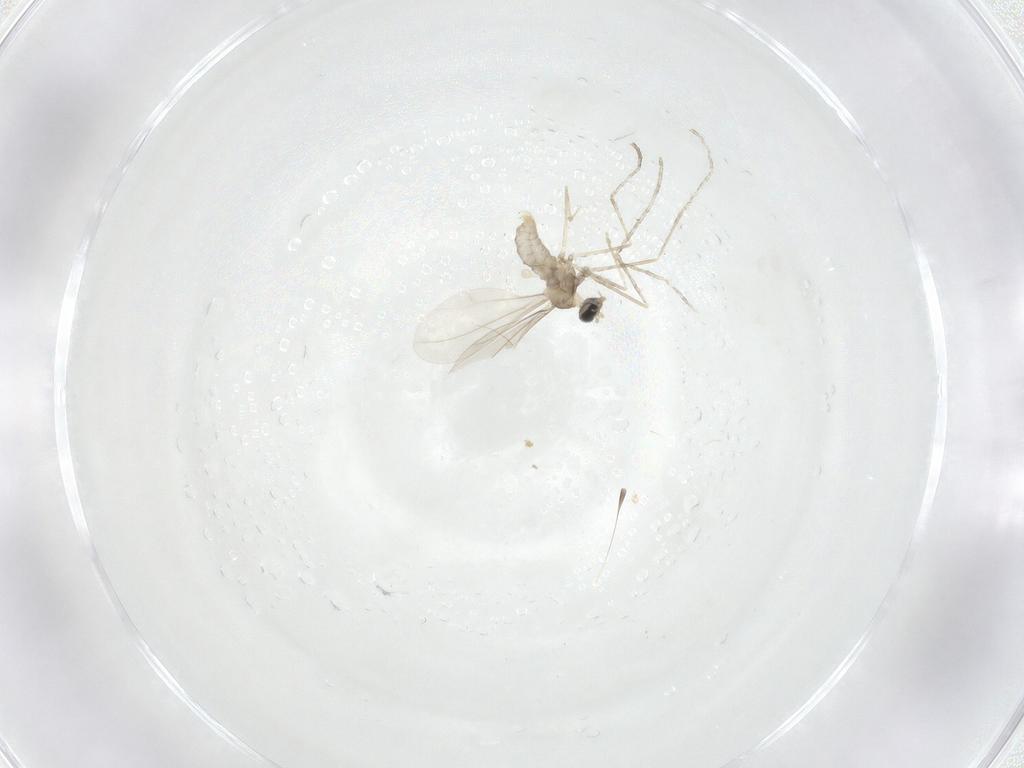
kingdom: Animalia
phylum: Arthropoda
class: Insecta
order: Diptera
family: Cecidomyiidae
